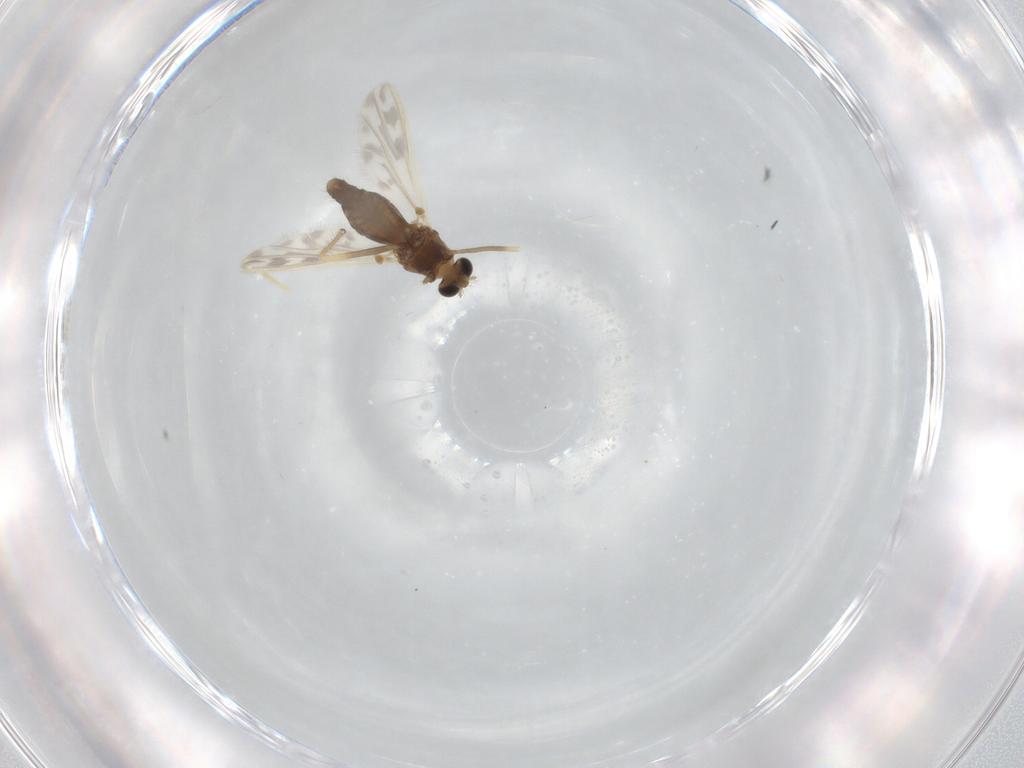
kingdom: Animalia
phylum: Arthropoda
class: Insecta
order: Diptera
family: Chironomidae
